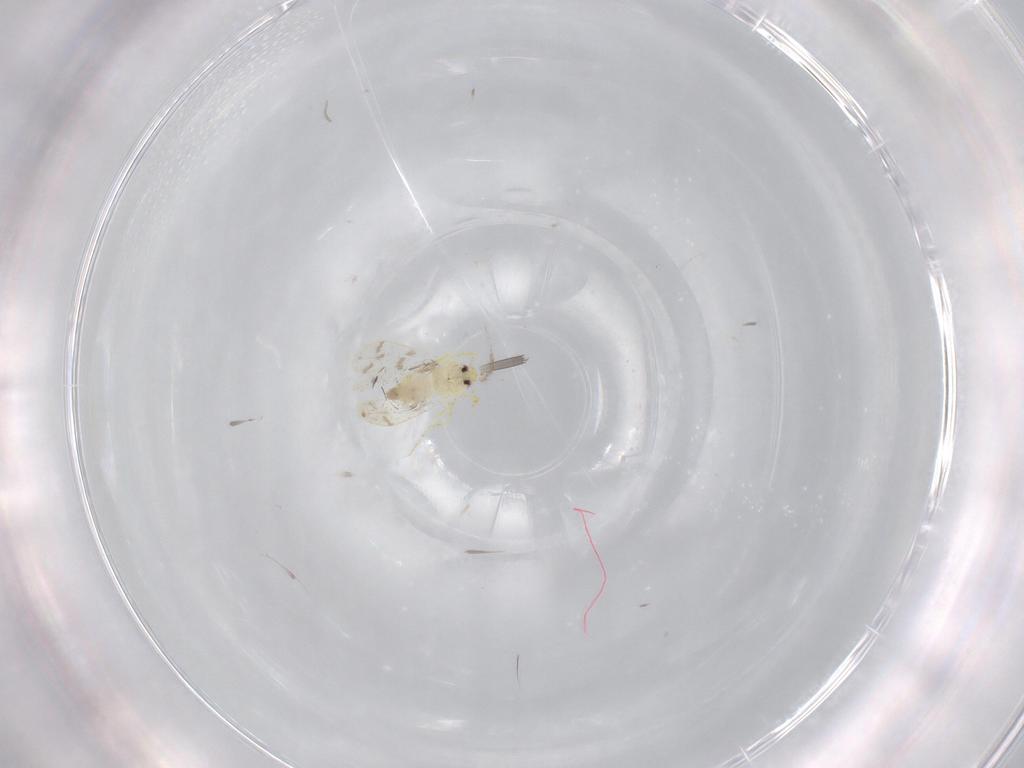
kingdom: Animalia
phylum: Arthropoda
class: Insecta
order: Hemiptera
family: Aleyrodidae
